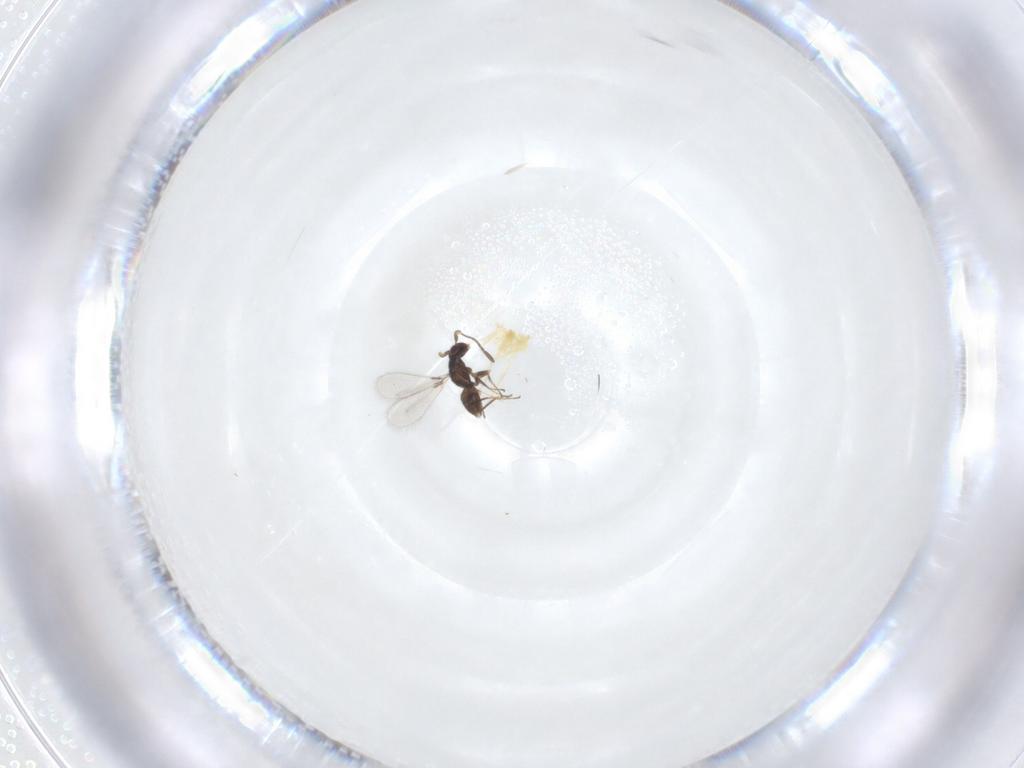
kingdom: Animalia
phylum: Arthropoda
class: Insecta
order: Hymenoptera
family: Mymaridae
